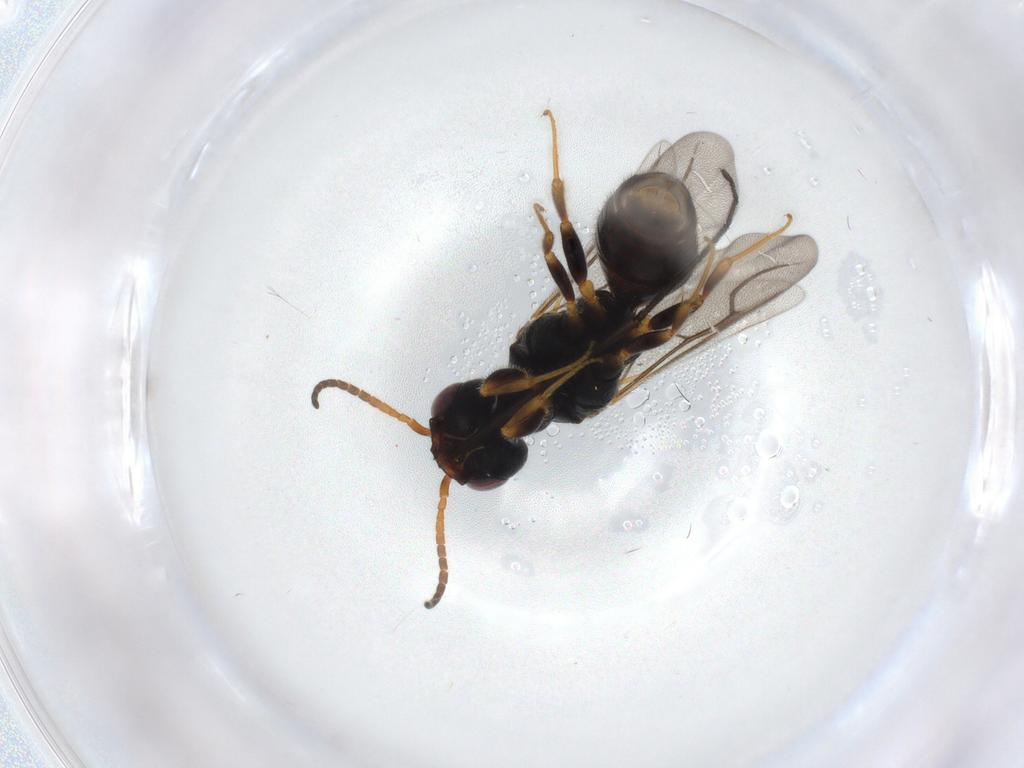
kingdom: Animalia
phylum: Arthropoda
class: Insecta
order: Hymenoptera
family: Bethylidae
